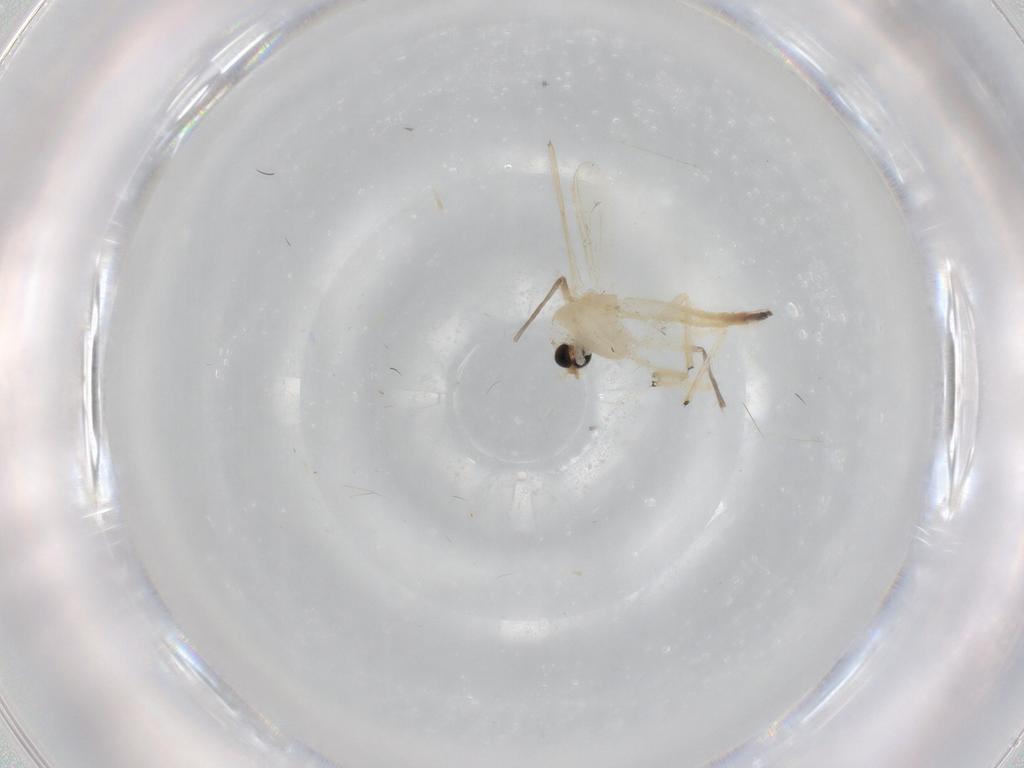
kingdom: Animalia
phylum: Arthropoda
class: Insecta
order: Diptera
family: Chironomidae
